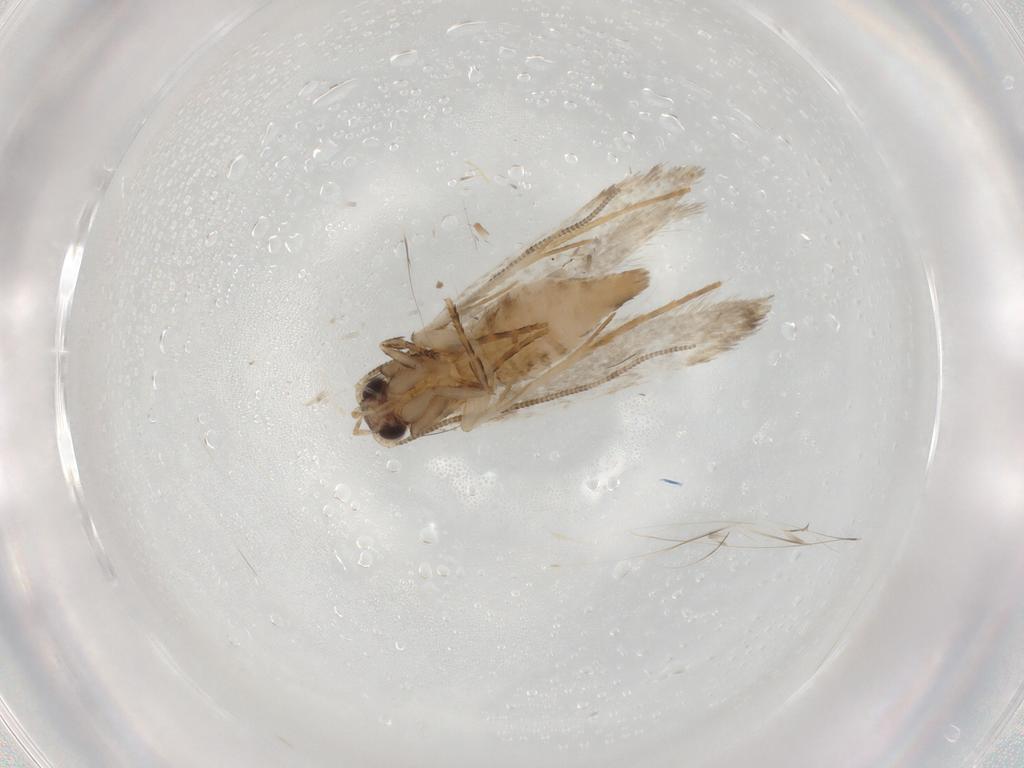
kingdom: Animalia
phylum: Arthropoda
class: Insecta
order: Lepidoptera
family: Tineidae
